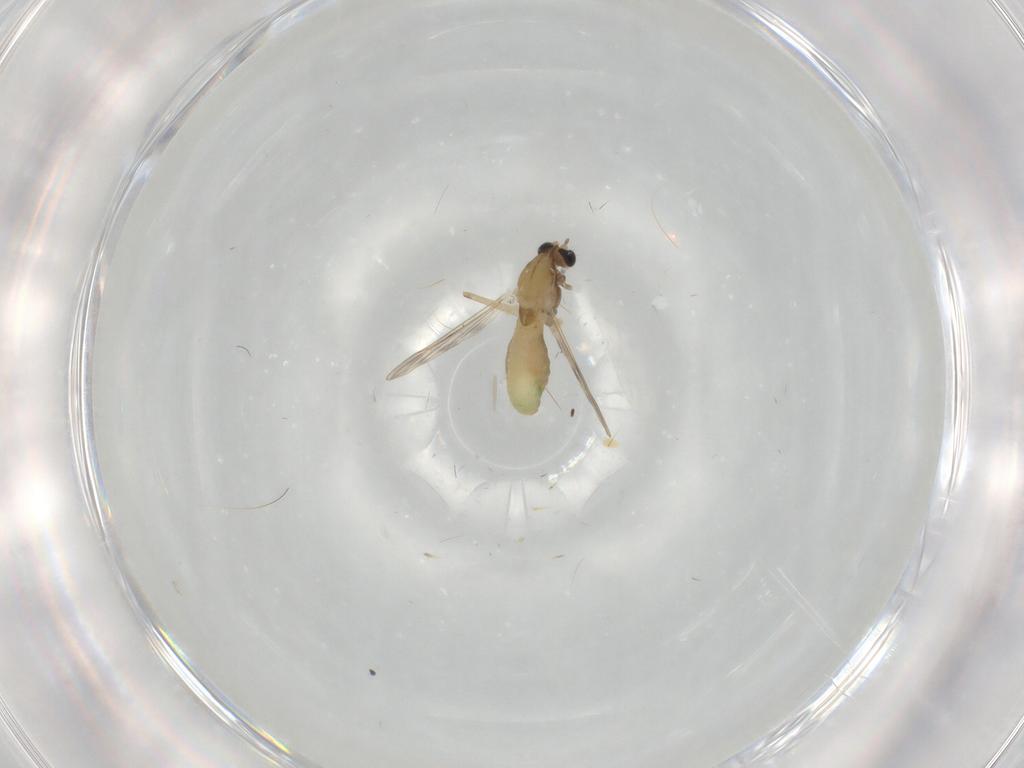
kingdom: Animalia
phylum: Arthropoda
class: Insecta
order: Diptera
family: Chironomidae
